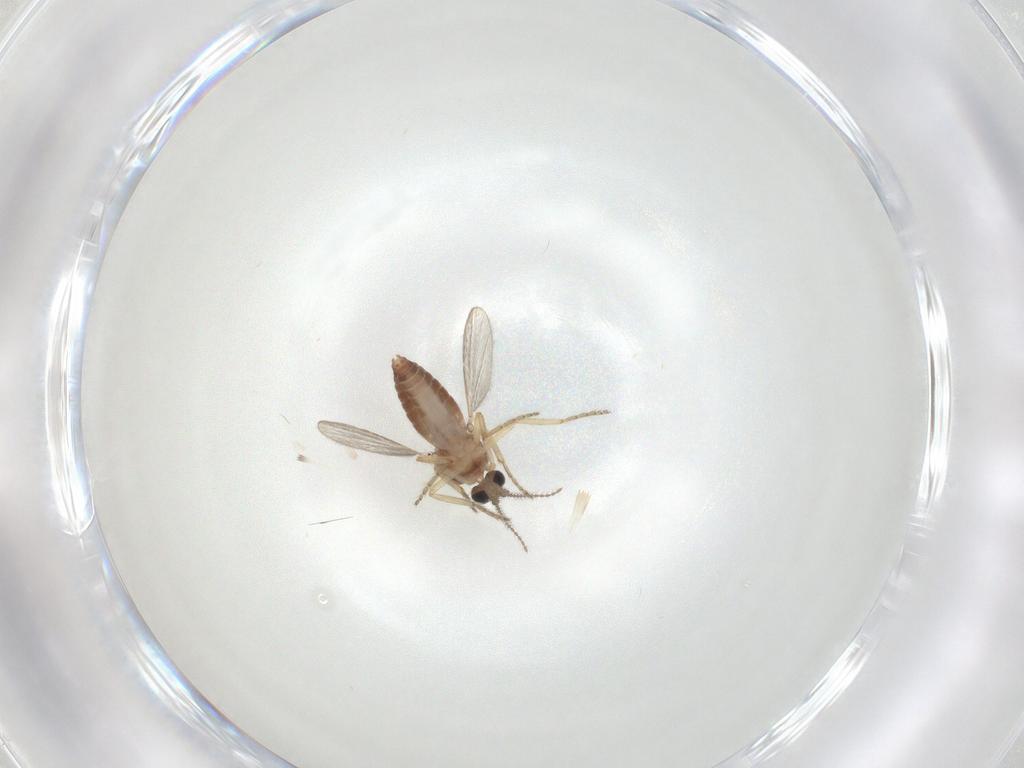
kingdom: Animalia
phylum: Arthropoda
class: Insecta
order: Diptera
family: Ceratopogonidae
